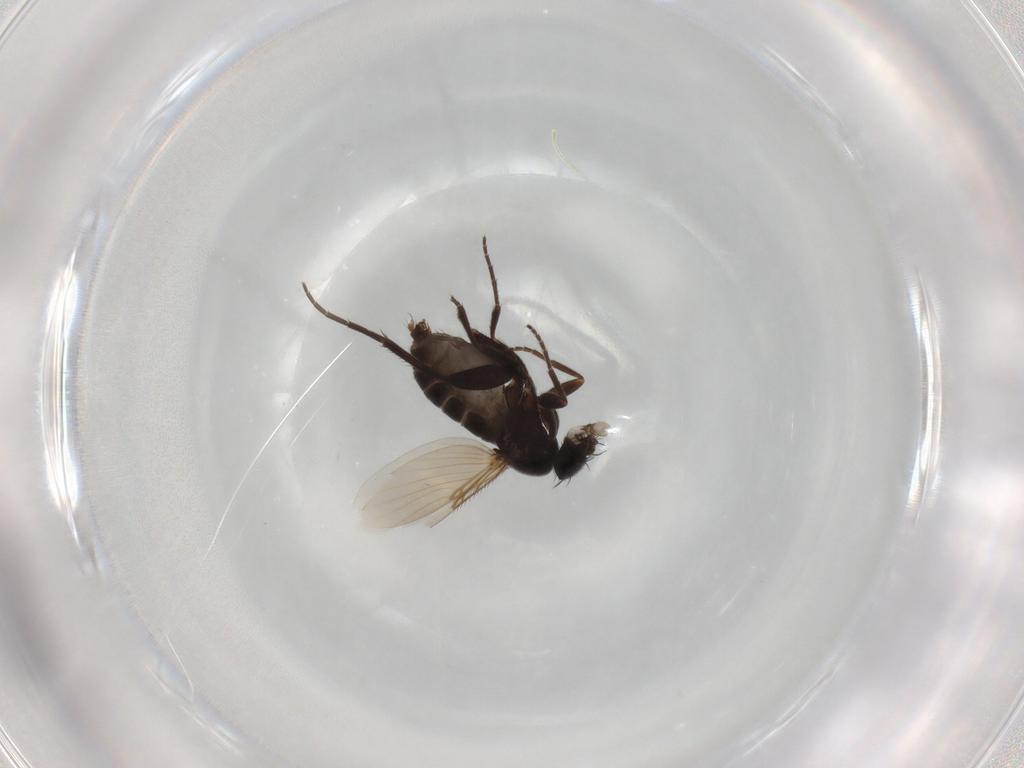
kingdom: Animalia
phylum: Arthropoda
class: Insecta
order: Diptera
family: Phoridae
